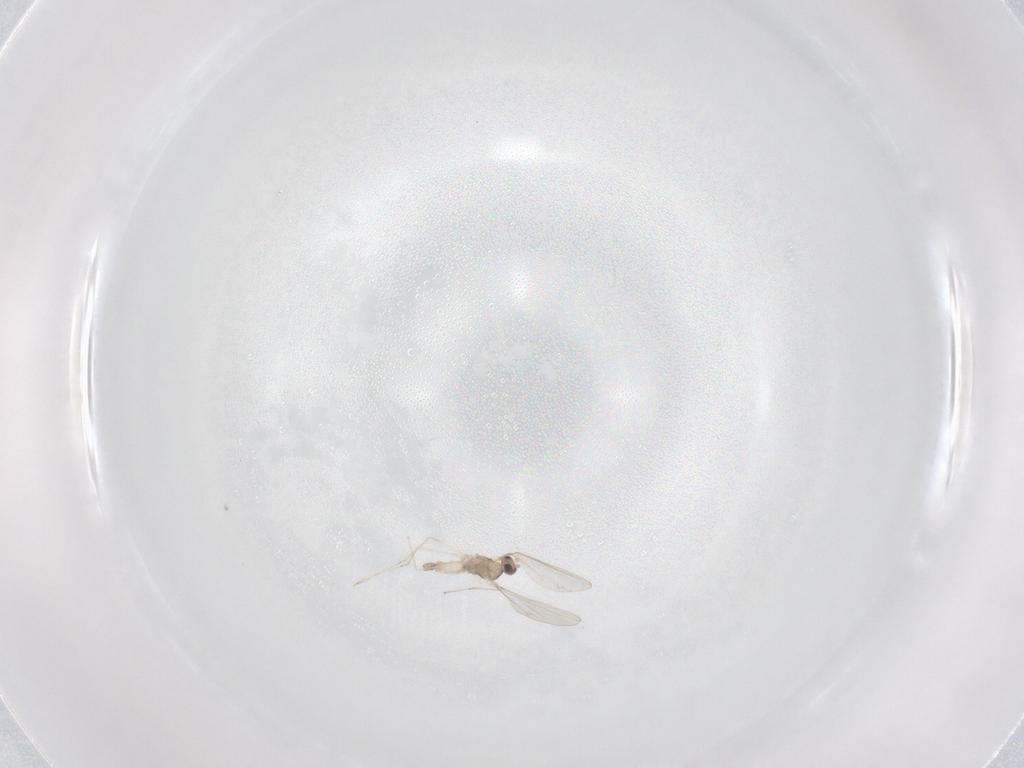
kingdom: Animalia
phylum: Arthropoda
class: Insecta
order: Diptera
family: Cecidomyiidae
